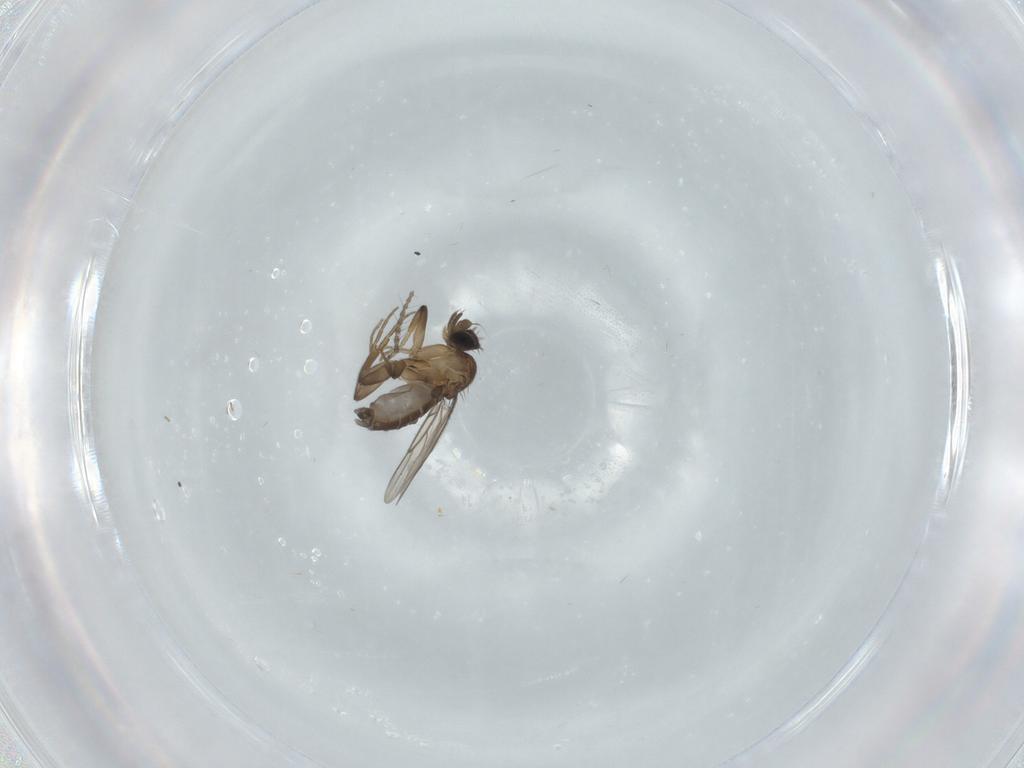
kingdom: Animalia
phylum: Arthropoda
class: Insecta
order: Diptera
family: Phoridae
